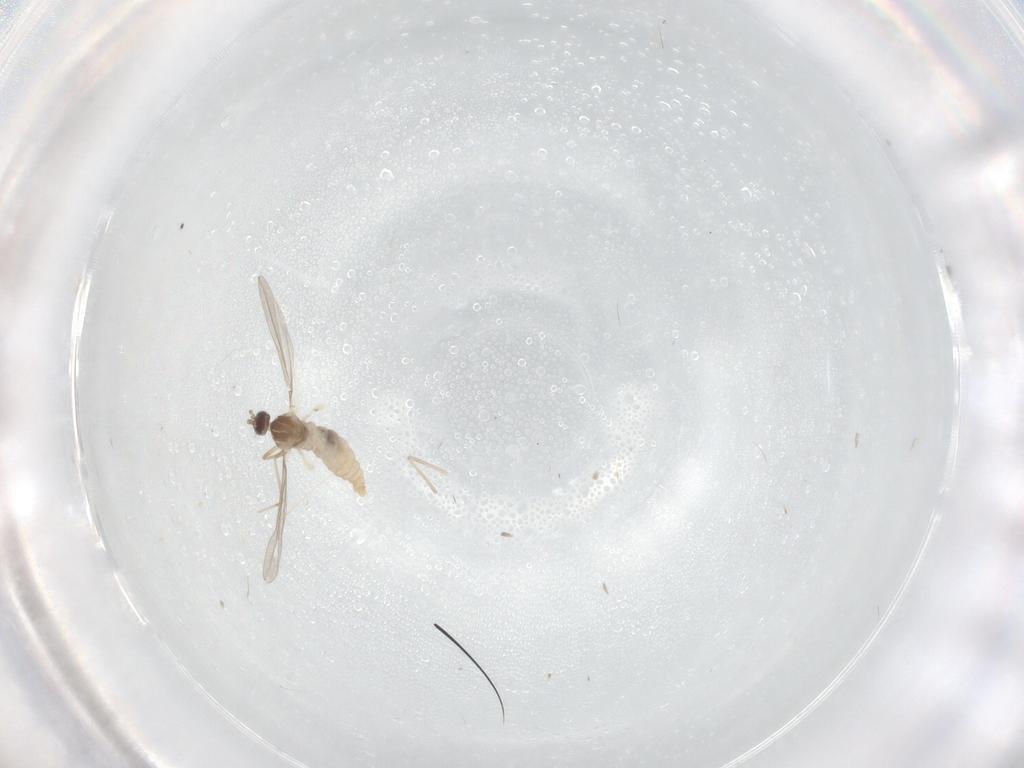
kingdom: Animalia
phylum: Arthropoda
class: Insecta
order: Diptera
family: Cecidomyiidae
